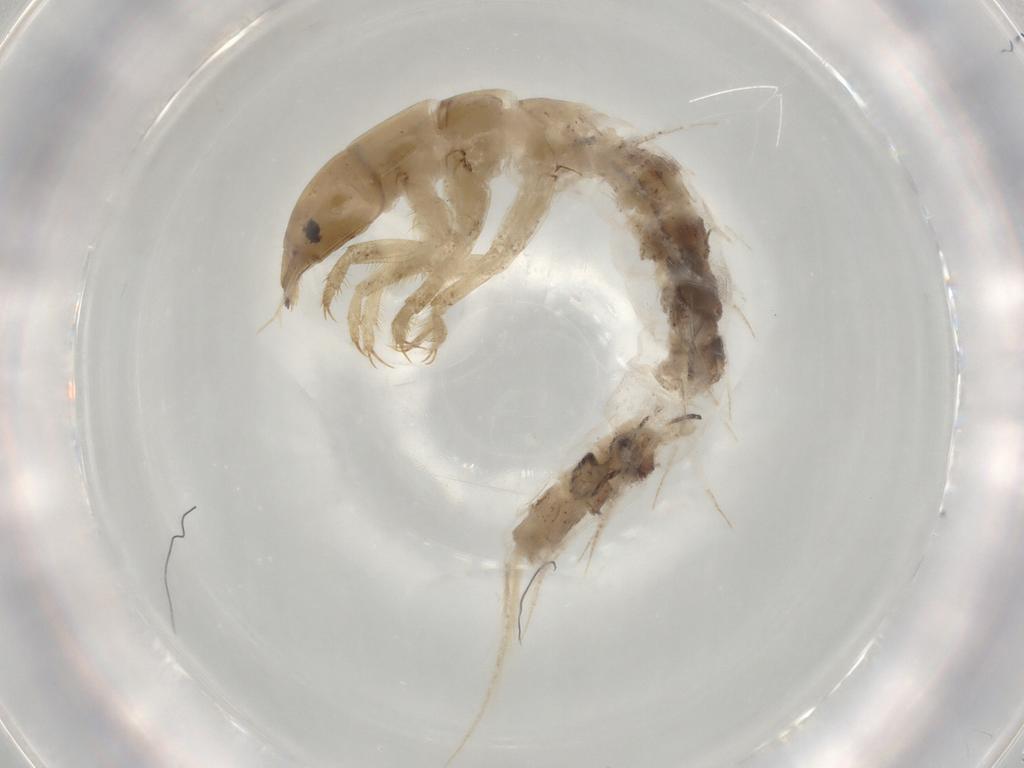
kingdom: Animalia
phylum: Arthropoda
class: Insecta
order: Megaloptera
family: Sialidae
